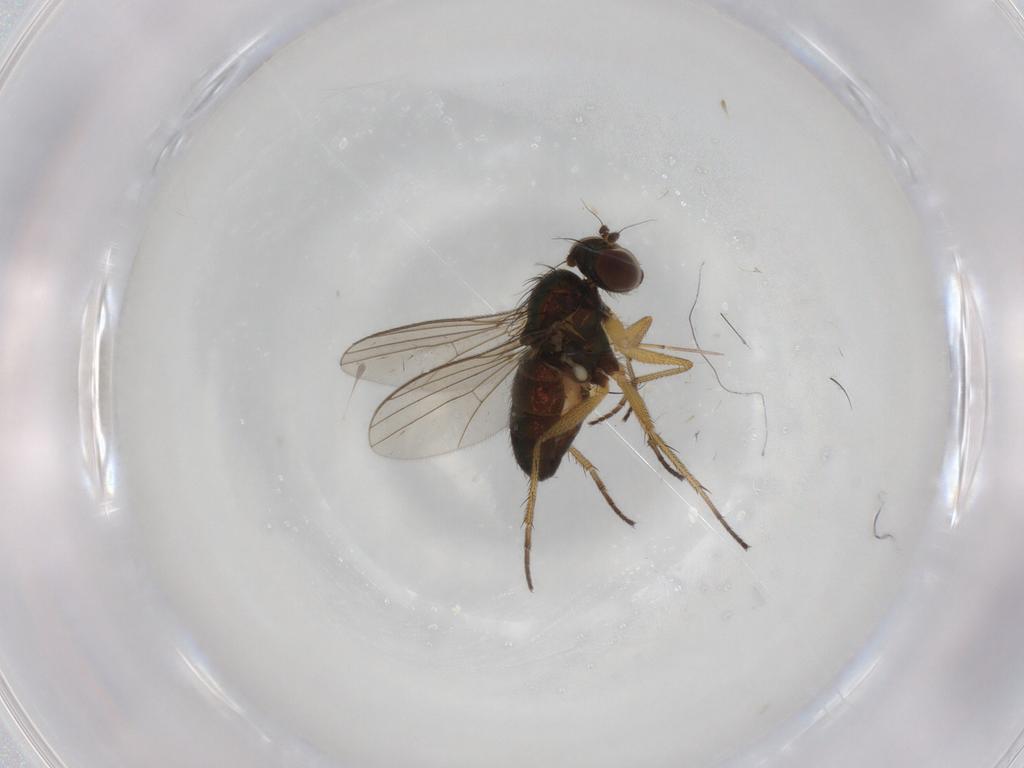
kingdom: Animalia
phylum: Arthropoda
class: Insecta
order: Diptera
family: Dolichopodidae
